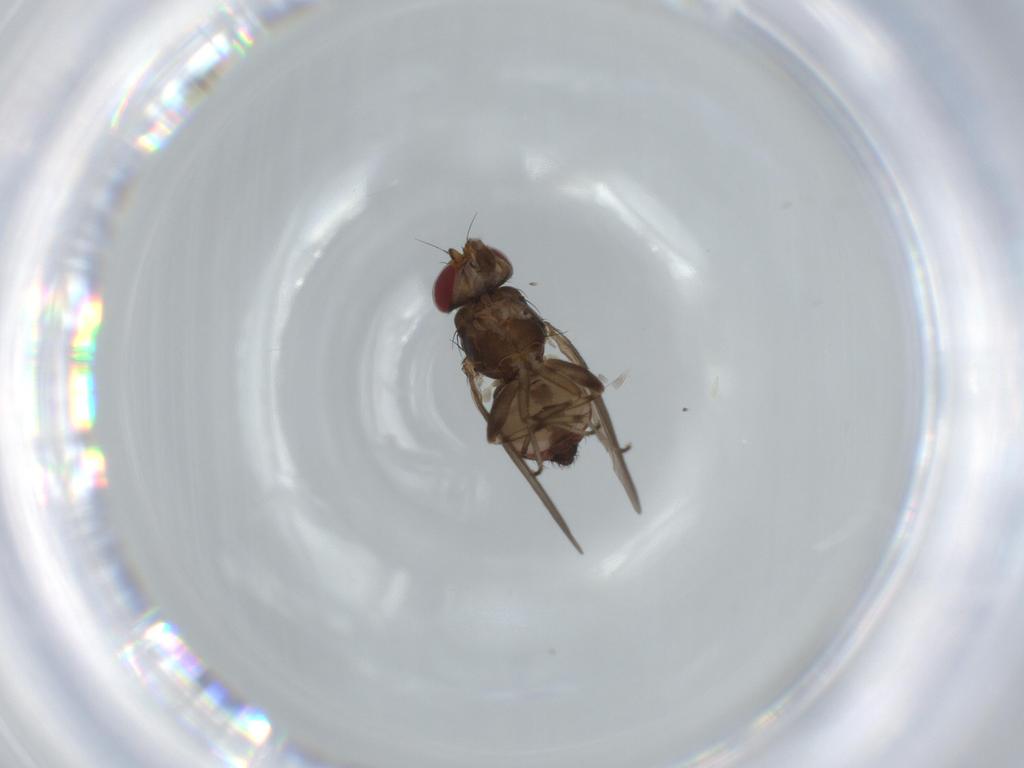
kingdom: Animalia
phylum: Arthropoda
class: Insecta
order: Diptera
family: Heleomyzidae
